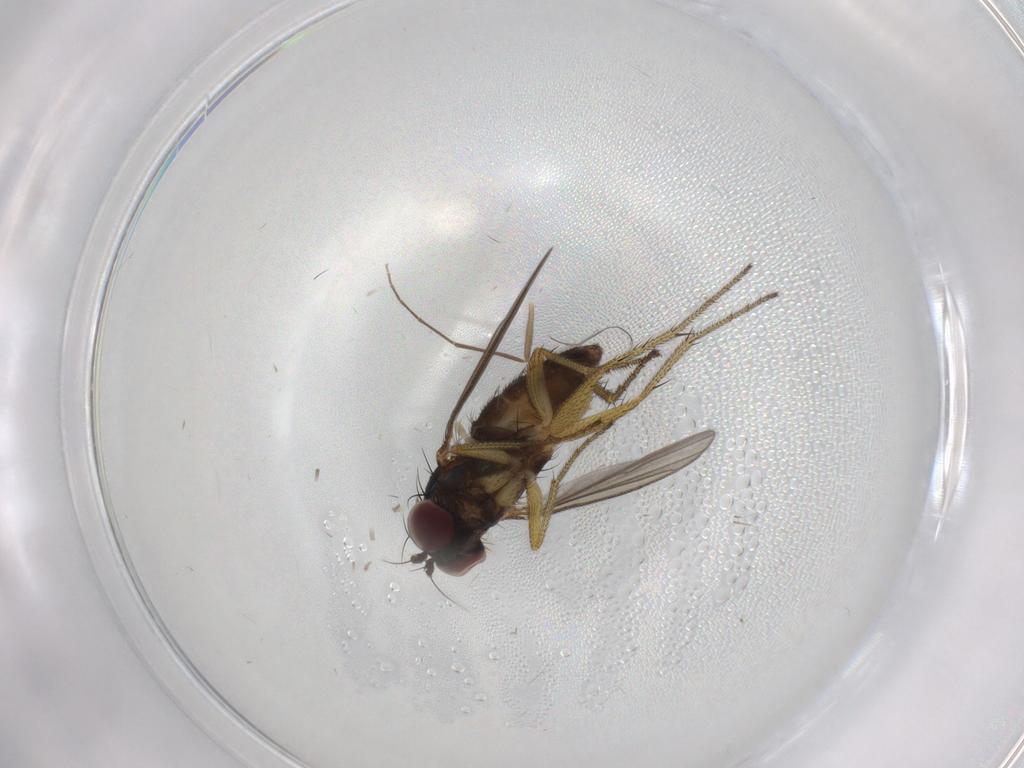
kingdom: Animalia
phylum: Arthropoda
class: Insecta
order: Diptera
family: Chironomidae
